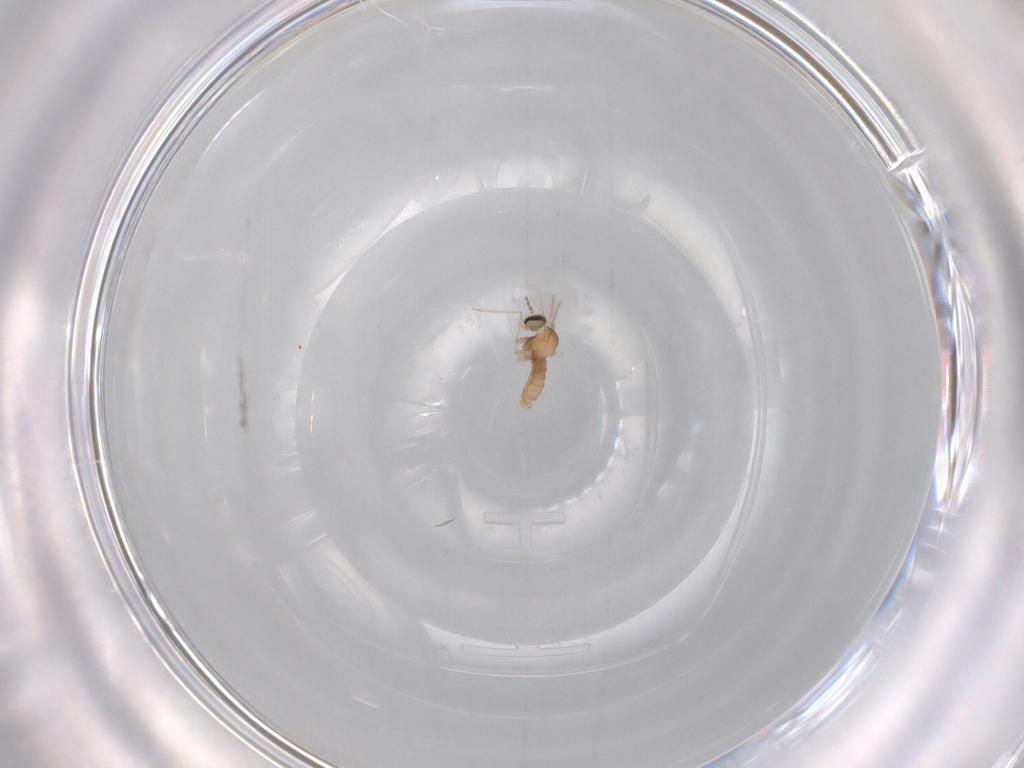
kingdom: Animalia
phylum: Arthropoda
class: Insecta
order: Diptera
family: Cecidomyiidae
